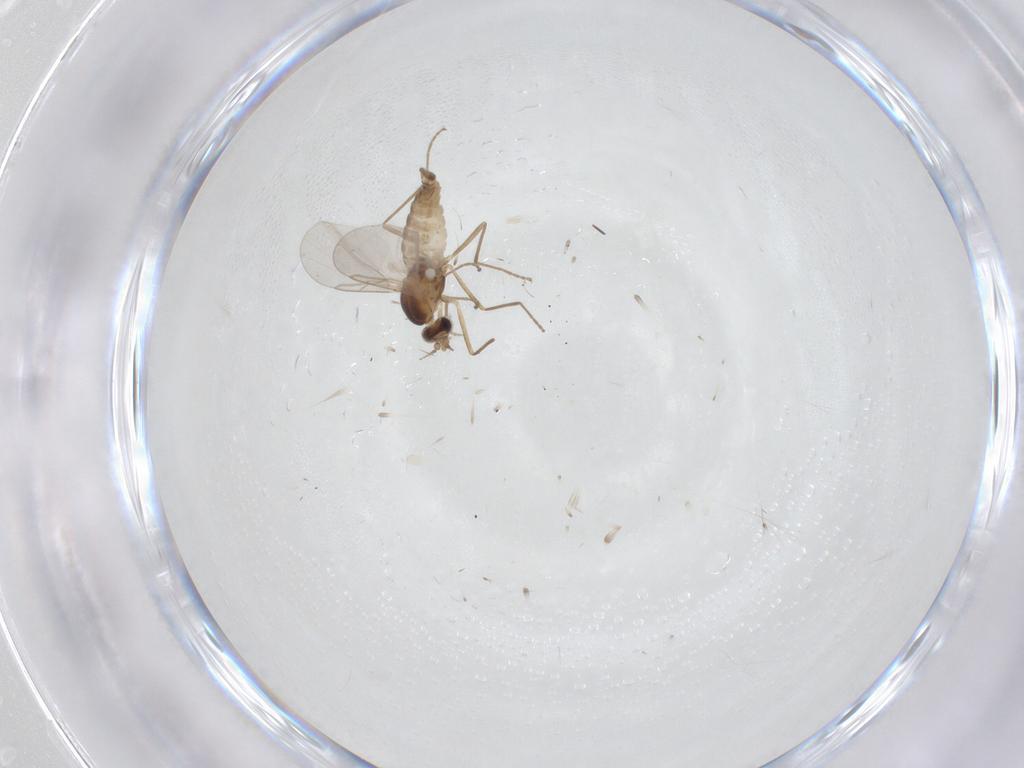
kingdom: Animalia
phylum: Arthropoda
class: Insecta
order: Diptera
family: Cecidomyiidae
